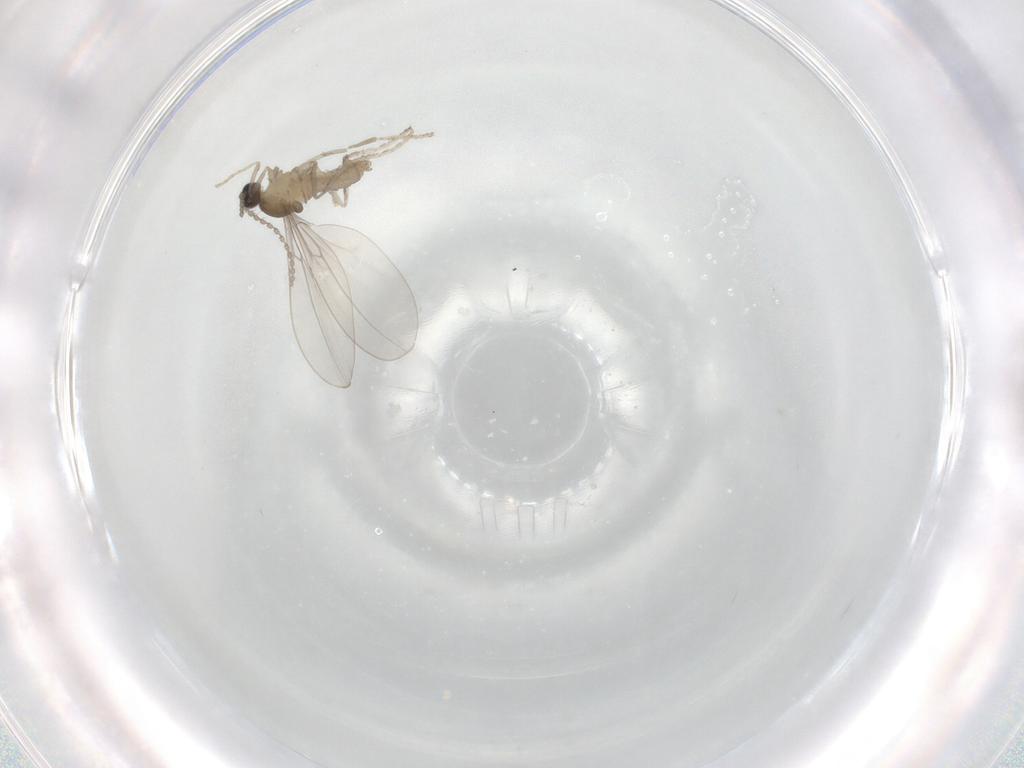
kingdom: Animalia
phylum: Arthropoda
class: Insecta
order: Diptera
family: Cecidomyiidae
